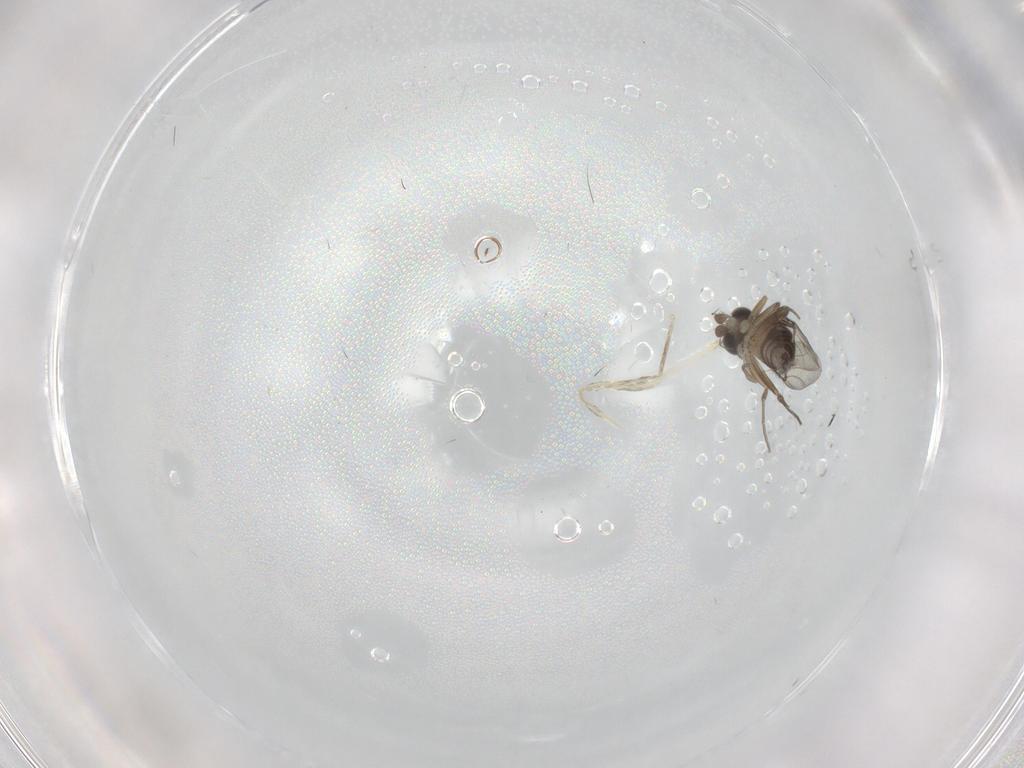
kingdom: Animalia
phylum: Arthropoda
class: Insecta
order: Diptera
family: Phoridae
